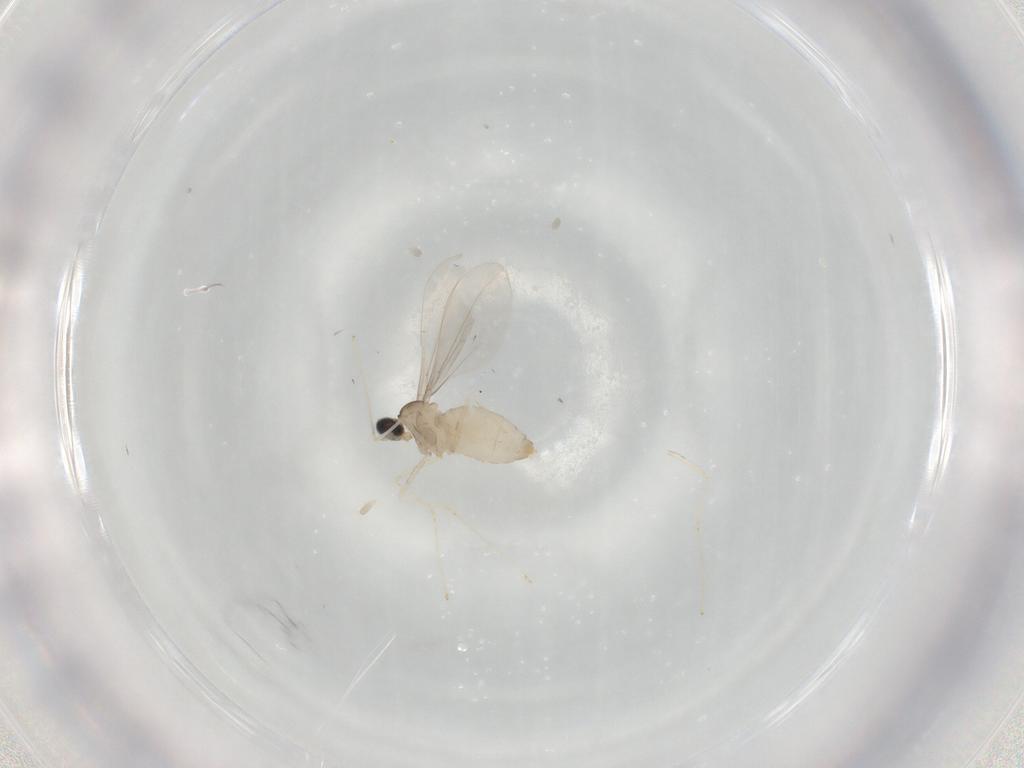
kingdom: Animalia
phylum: Arthropoda
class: Insecta
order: Diptera
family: Cecidomyiidae
